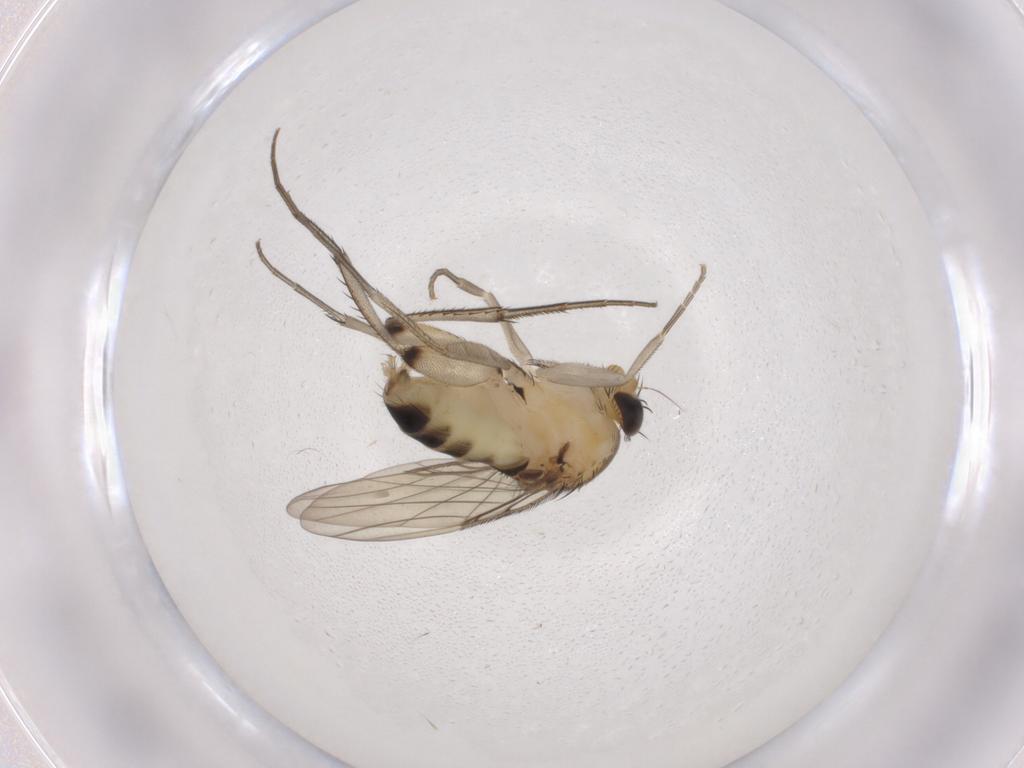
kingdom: Animalia
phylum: Arthropoda
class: Insecta
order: Diptera
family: Phoridae
